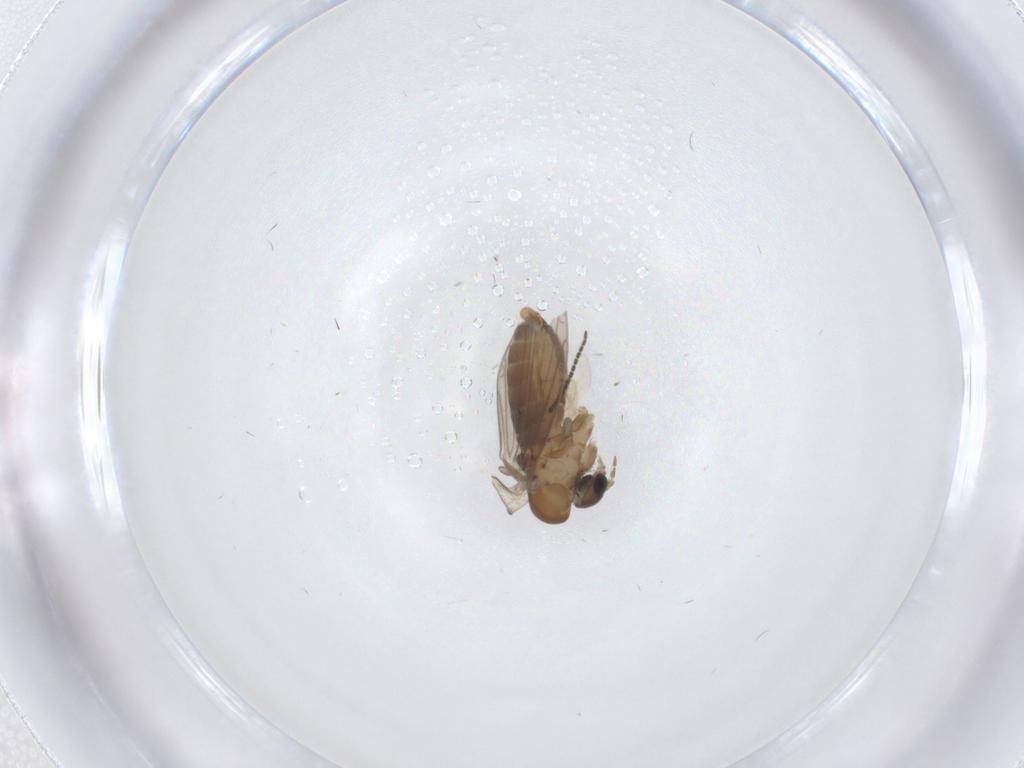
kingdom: Animalia
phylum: Arthropoda
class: Insecta
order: Diptera
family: Sciaridae
